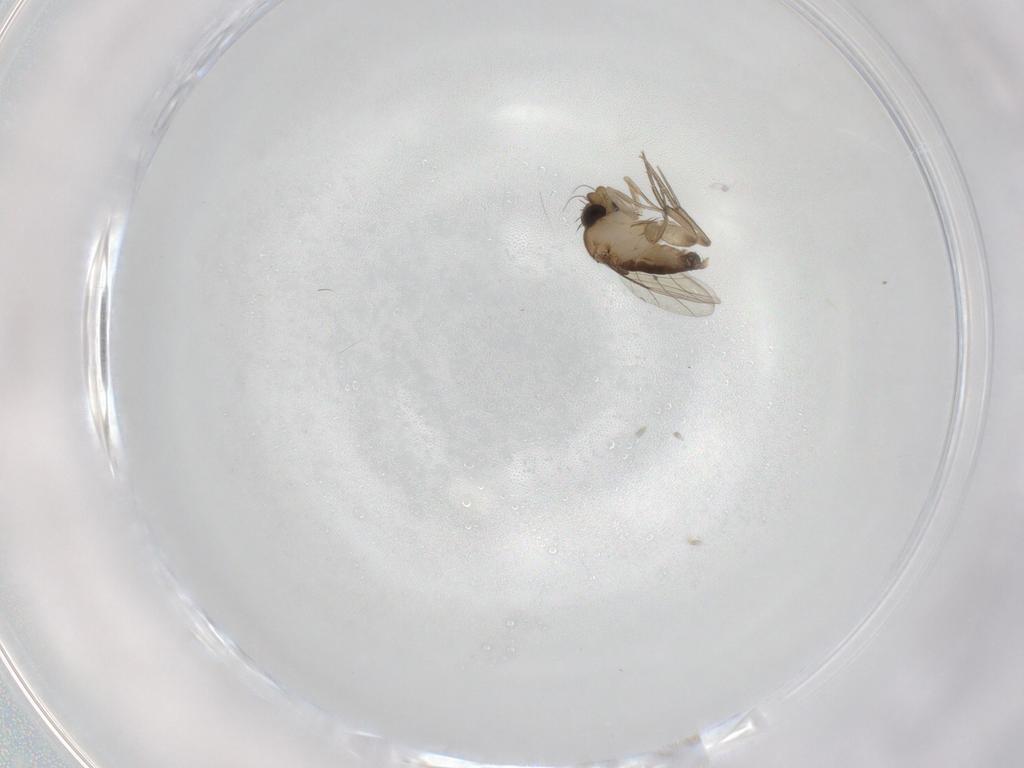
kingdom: Animalia
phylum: Arthropoda
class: Insecta
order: Diptera
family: Phoridae
